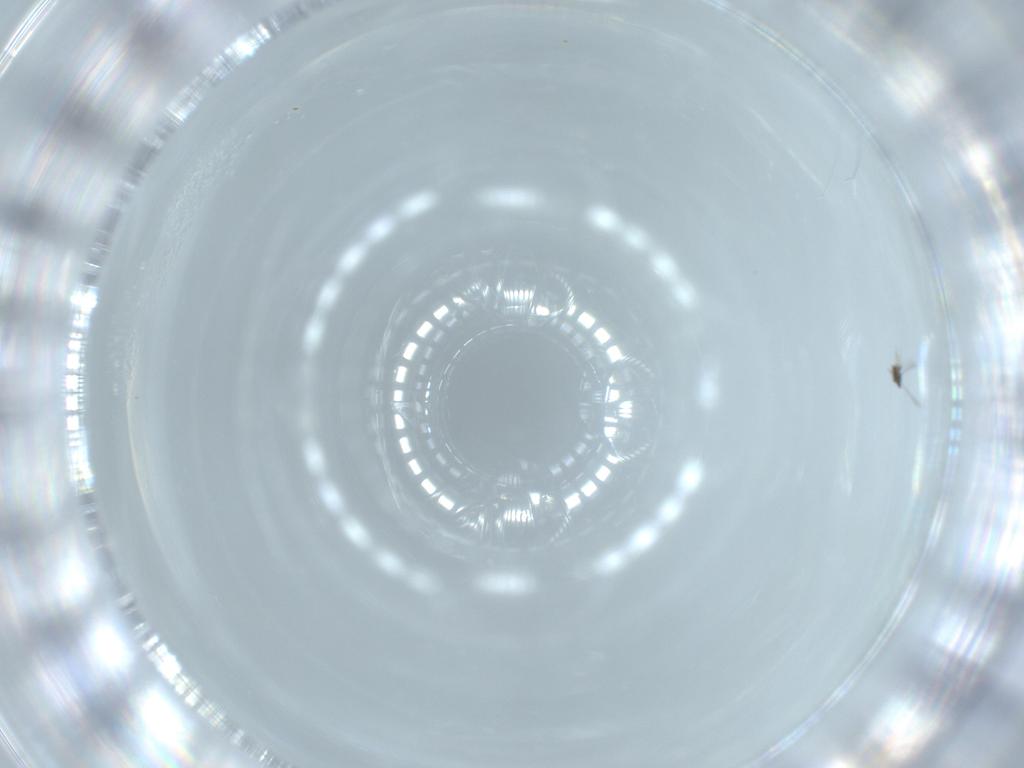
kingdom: Animalia
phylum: Arthropoda
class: Insecta
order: Hymenoptera
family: Mymaridae
